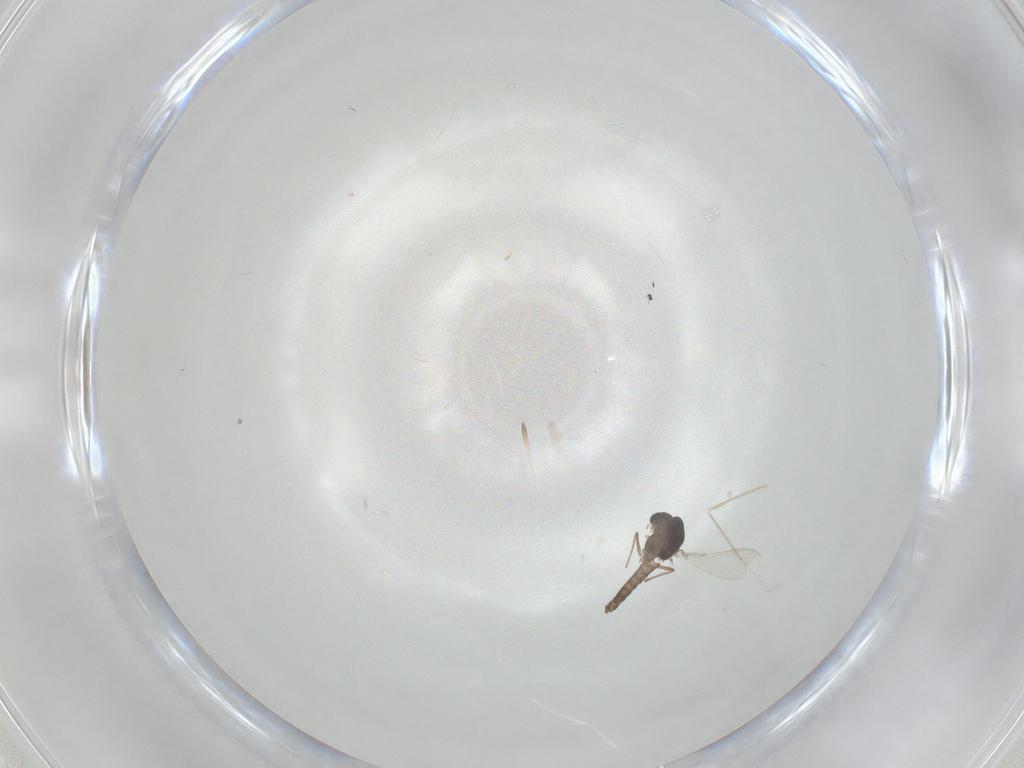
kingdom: Animalia
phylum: Arthropoda
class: Insecta
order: Diptera
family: Chironomidae
